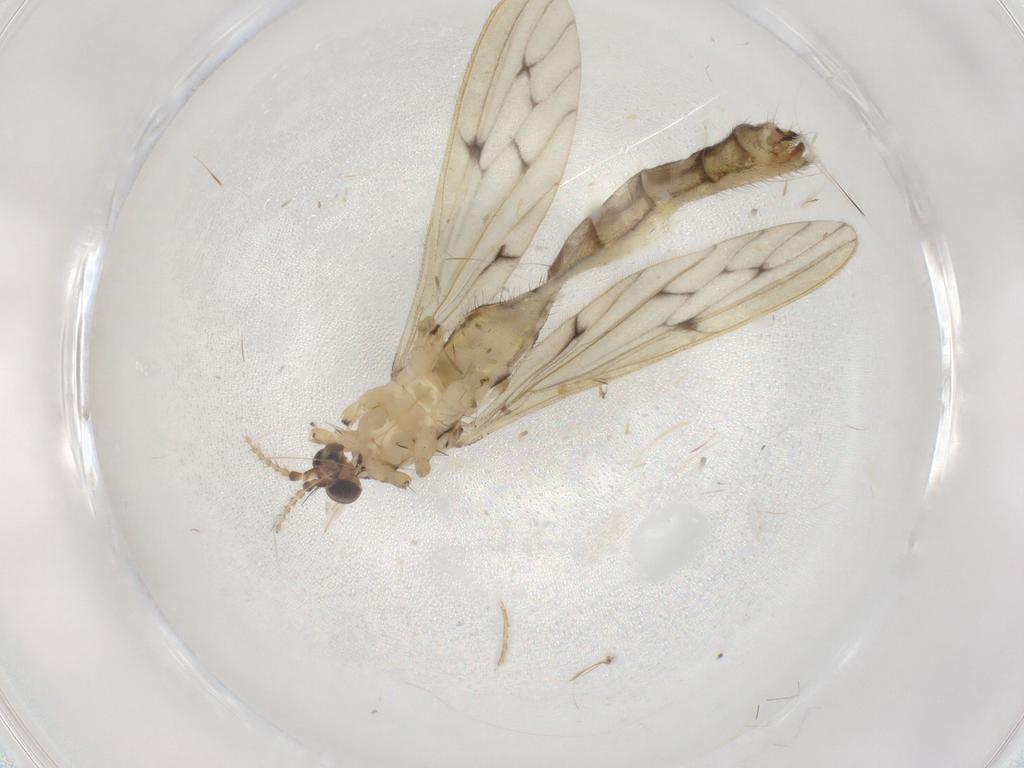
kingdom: Animalia
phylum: Arthropoda
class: Insecta
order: Diptera
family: Limoniidae
